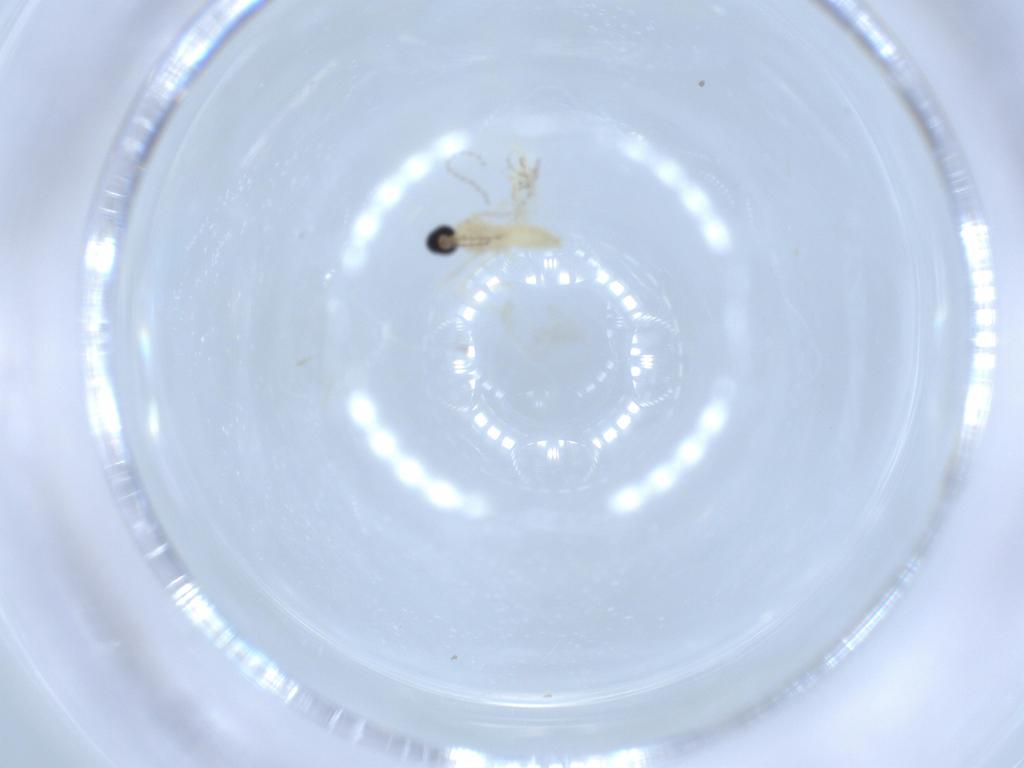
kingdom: Animalia
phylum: Arthropoda
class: Insecta
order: Diptera
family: Cecidomyiidae
